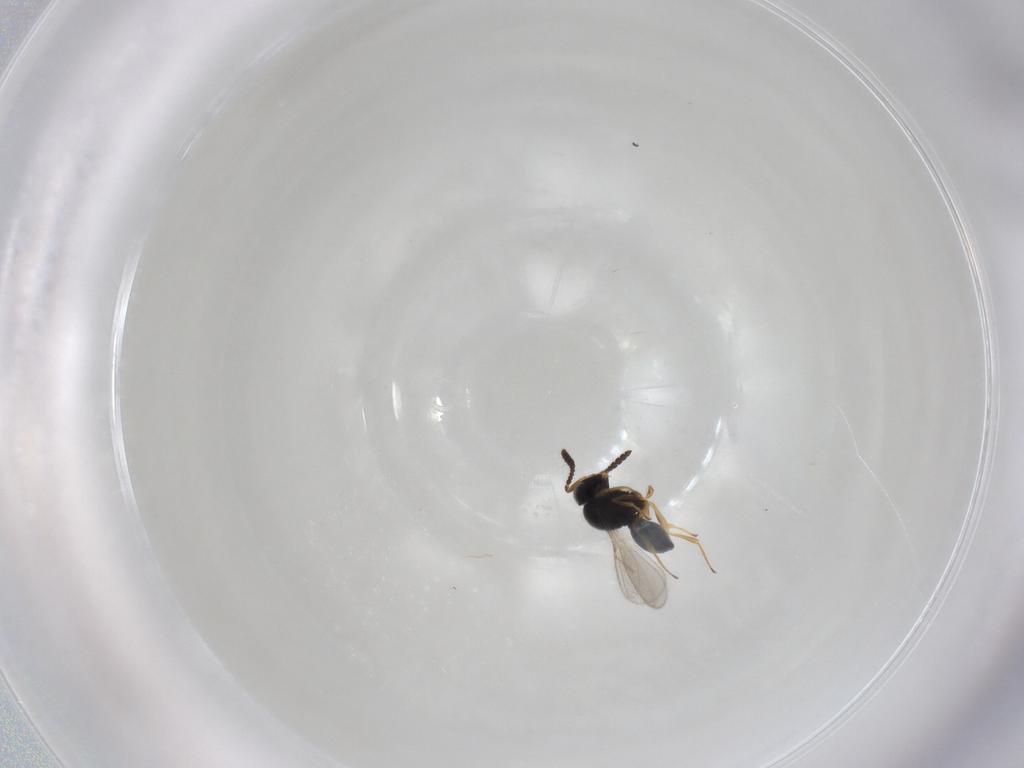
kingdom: Animalia
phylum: Arthropoda
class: Insecta
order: Hymenoptera
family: Scelionidae
